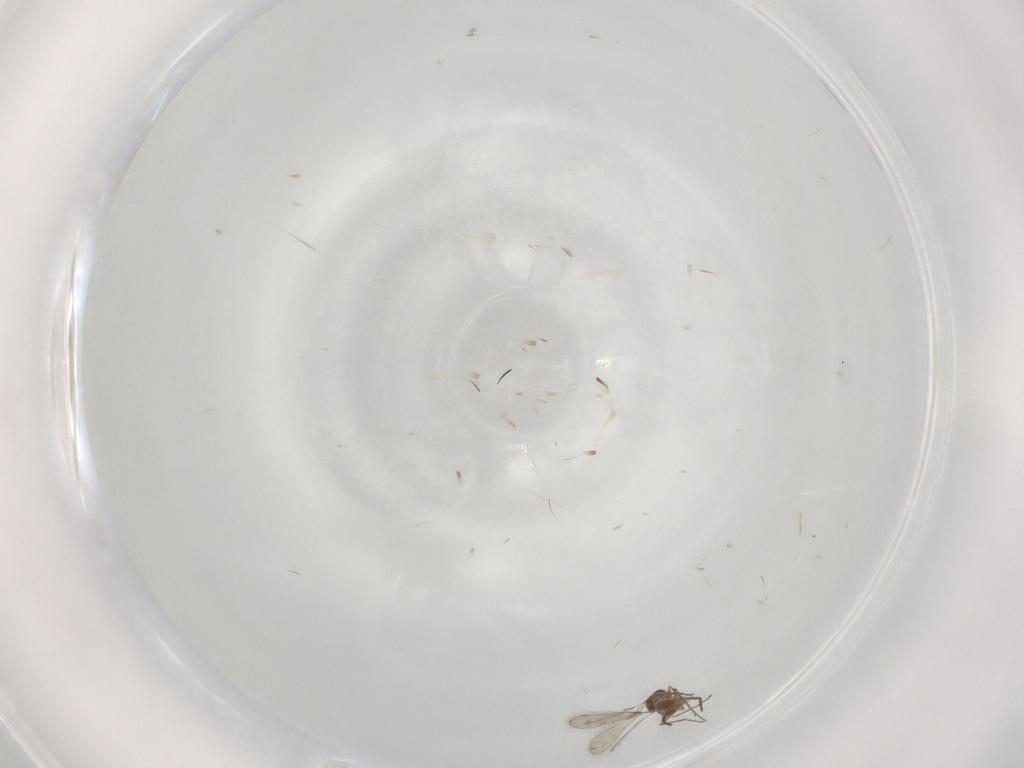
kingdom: Animalia
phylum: Arthropoda
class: Insecta
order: Hymenoptera
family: Mymaridae
